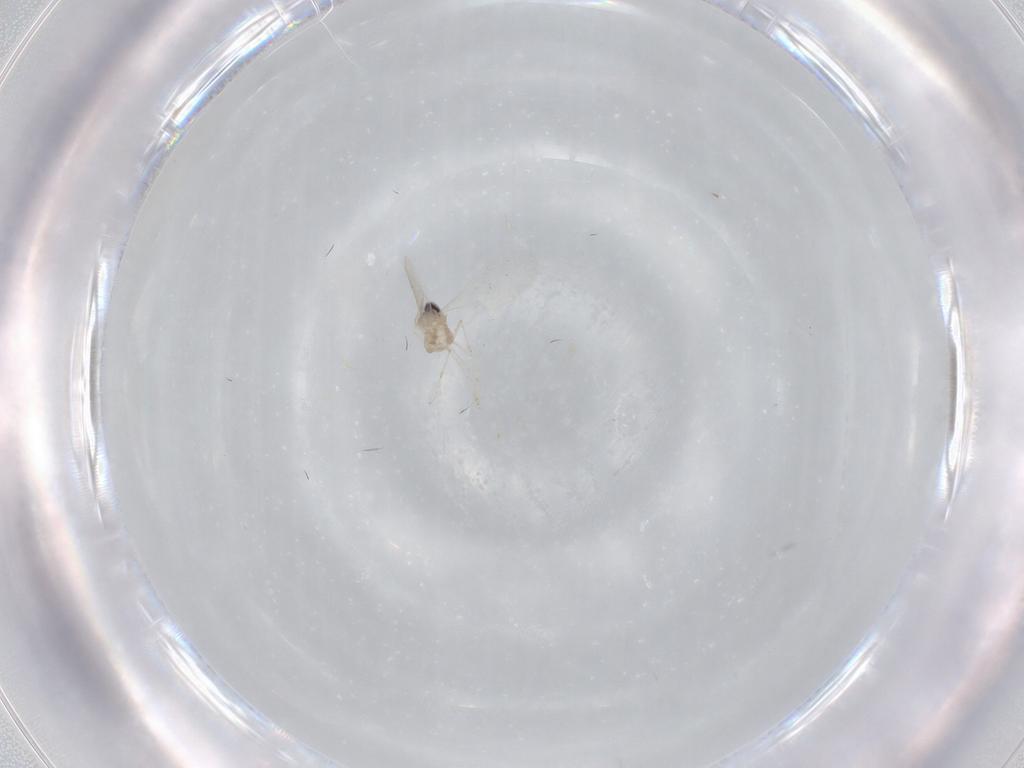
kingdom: Animalia
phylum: Arthropoda
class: Insecta
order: Diptera
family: Cecidomyiidae
